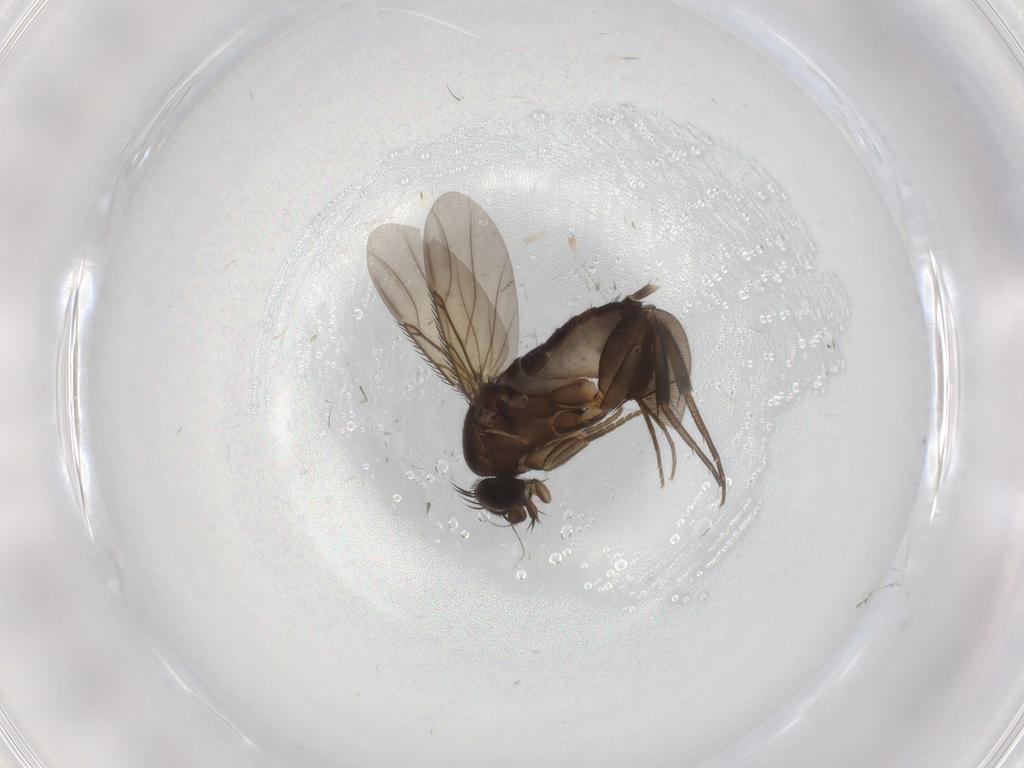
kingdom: Animalia
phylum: Arthropoda
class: Insecta
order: Diptera
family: Phoridae
